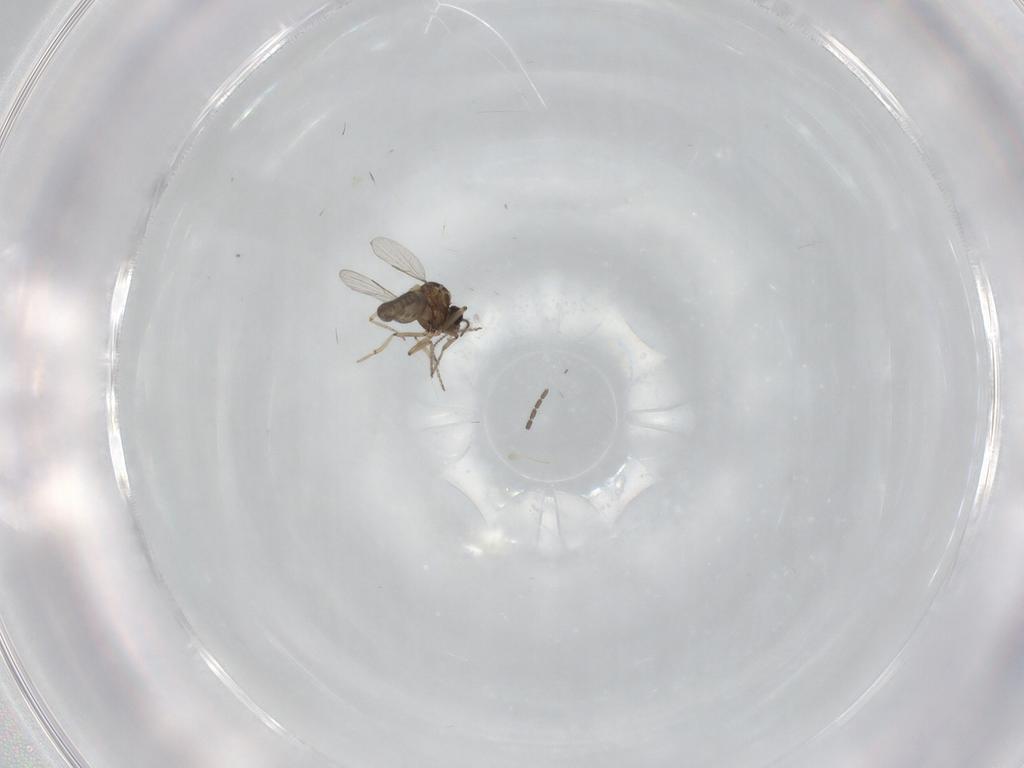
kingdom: Animalia
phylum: Arthropoda
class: Insecta
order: Diptera
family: Ceratopogonidae
